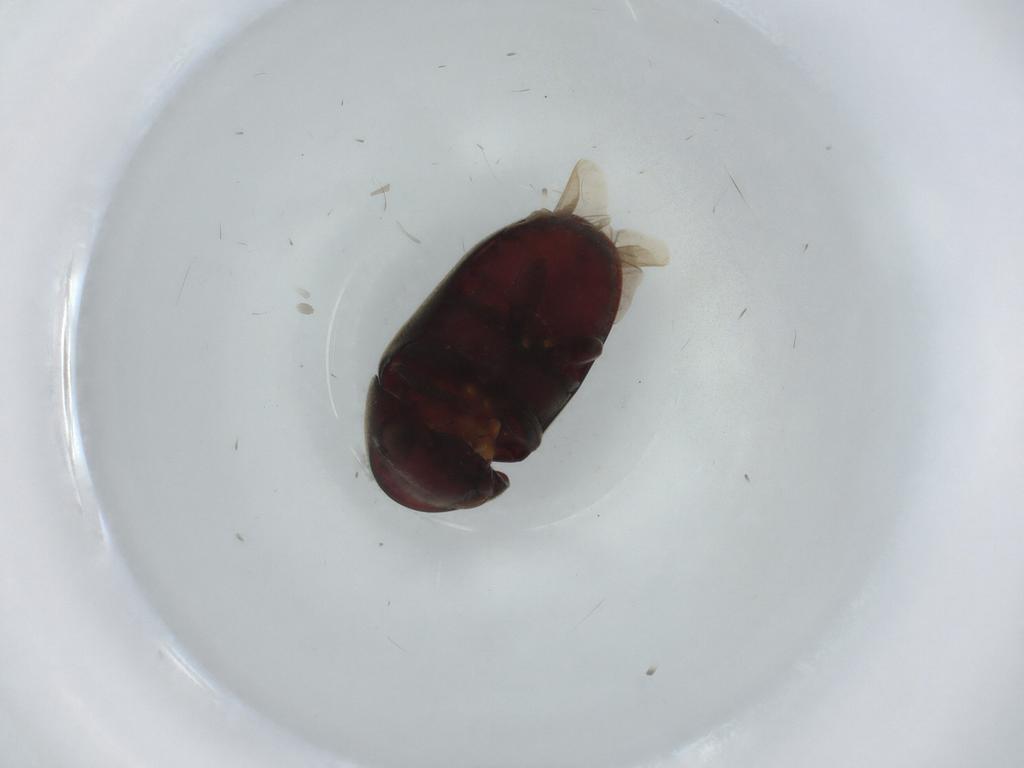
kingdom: Animalia
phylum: Arthropoda
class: Insecta
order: Coleoptera
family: Ptinidae
